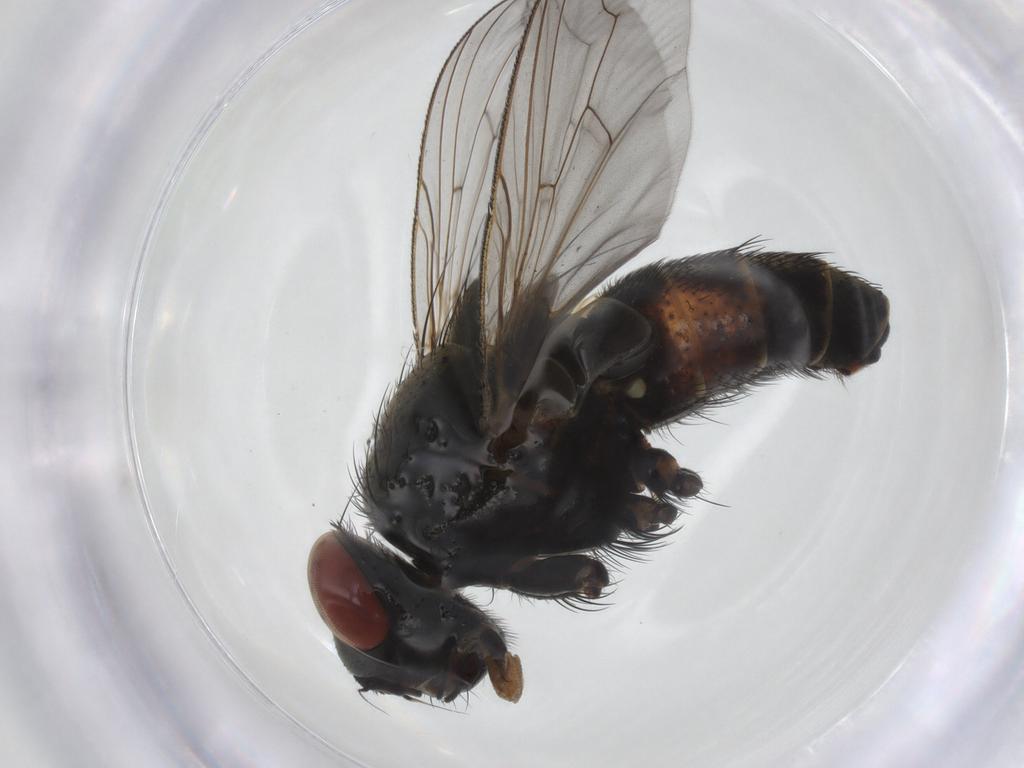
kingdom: Animalia
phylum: Arthropoda
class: Insecta
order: Diptera
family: Sarcophagidae
